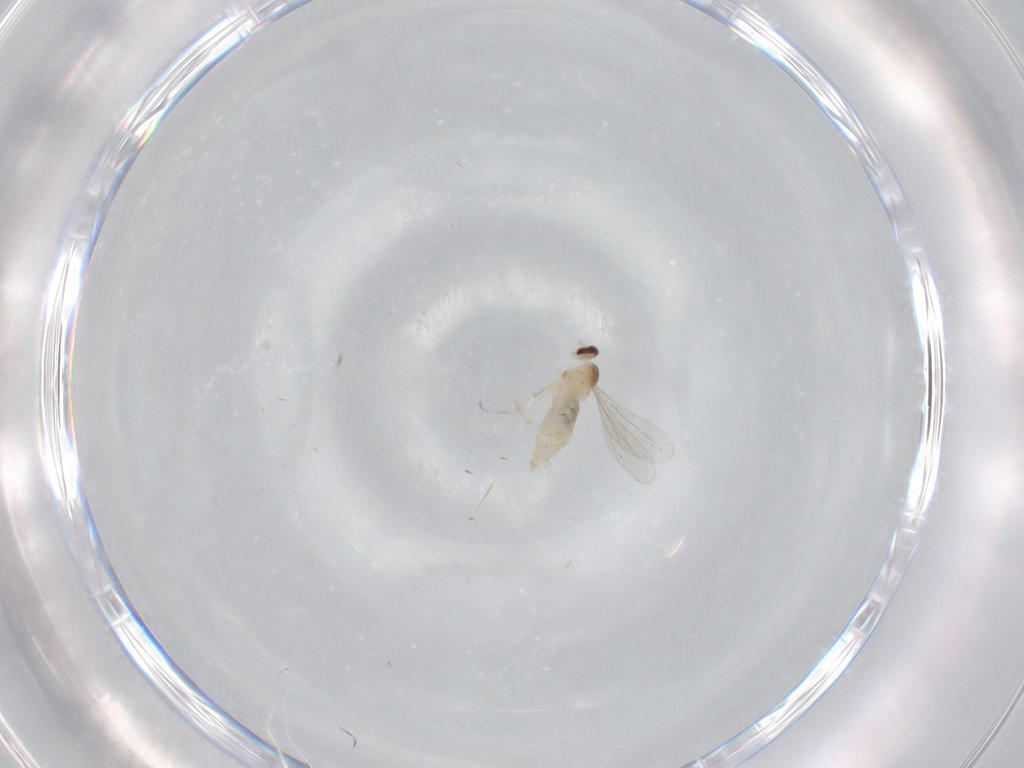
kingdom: Animalia
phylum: Arthropoda
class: Insecta
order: Diptera
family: Cecidomyiidae
